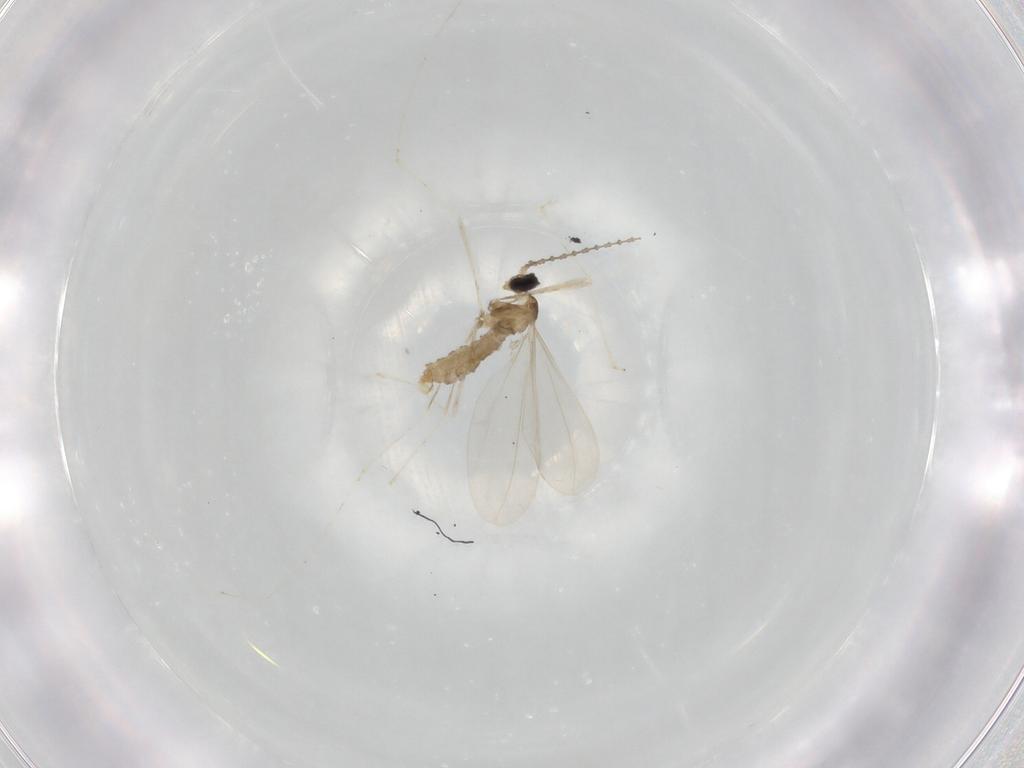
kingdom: Animalia
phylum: Arthropoda
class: Insecta
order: Diptera
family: Cecidomyiidae
